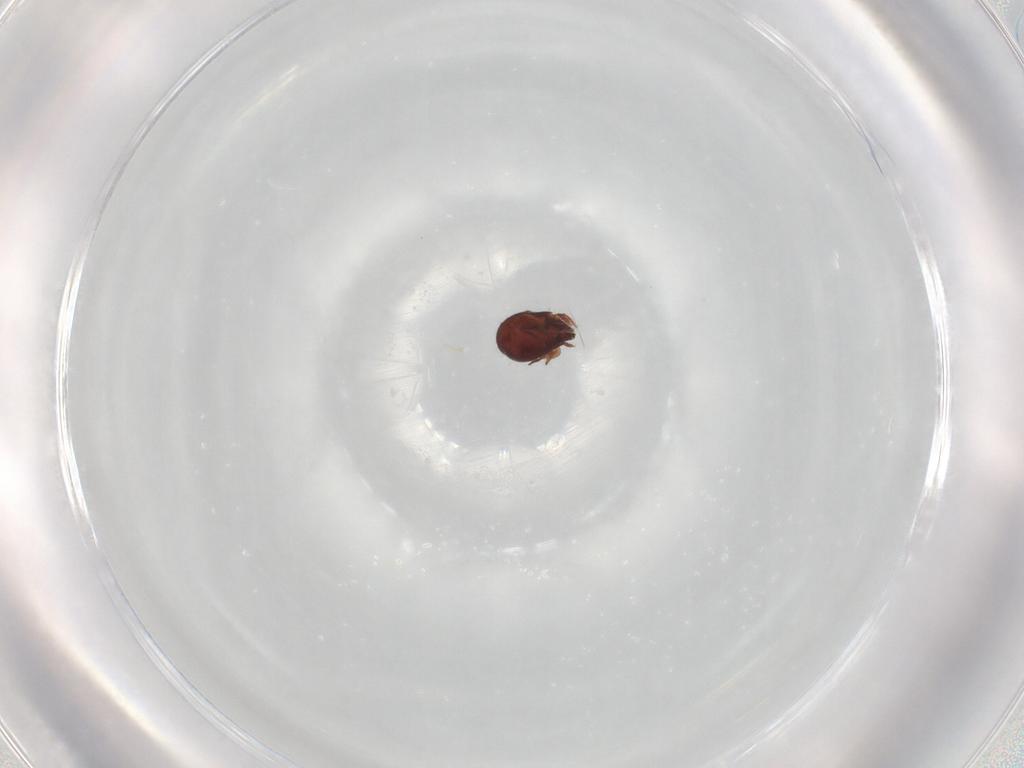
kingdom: Animalia
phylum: Arthropoda
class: Arachnida
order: Sarcoptiformes
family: Humerobatidae
